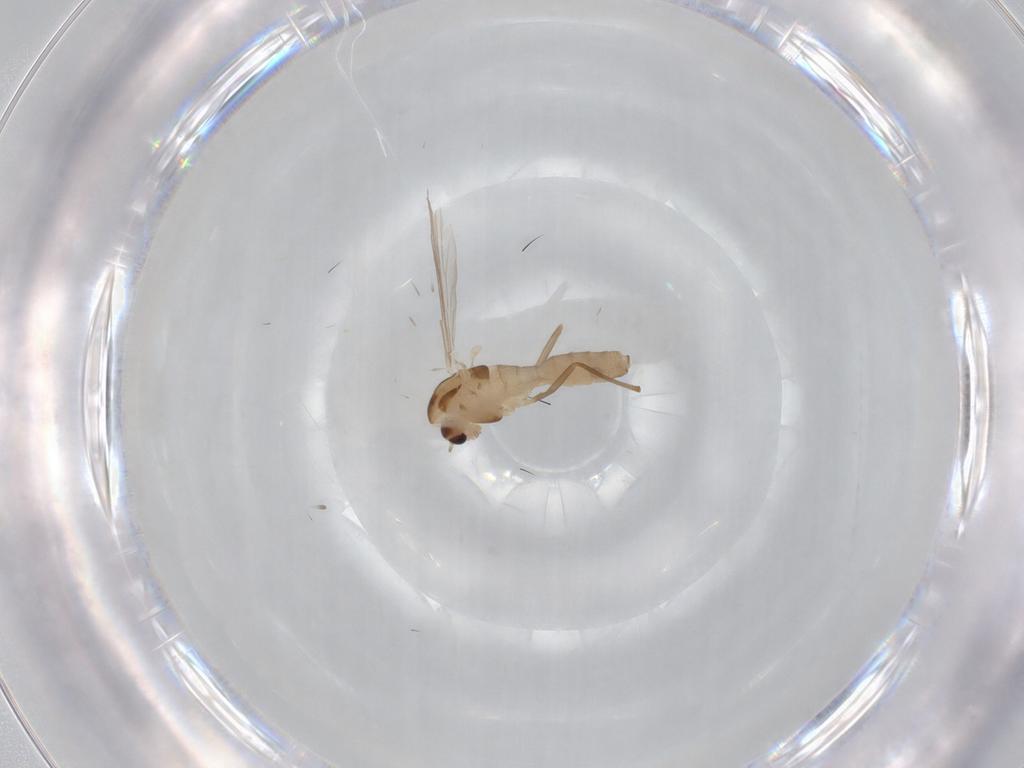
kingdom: Animalia
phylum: Arthropoda
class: Insecta
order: Diptera
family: Chironomidae
